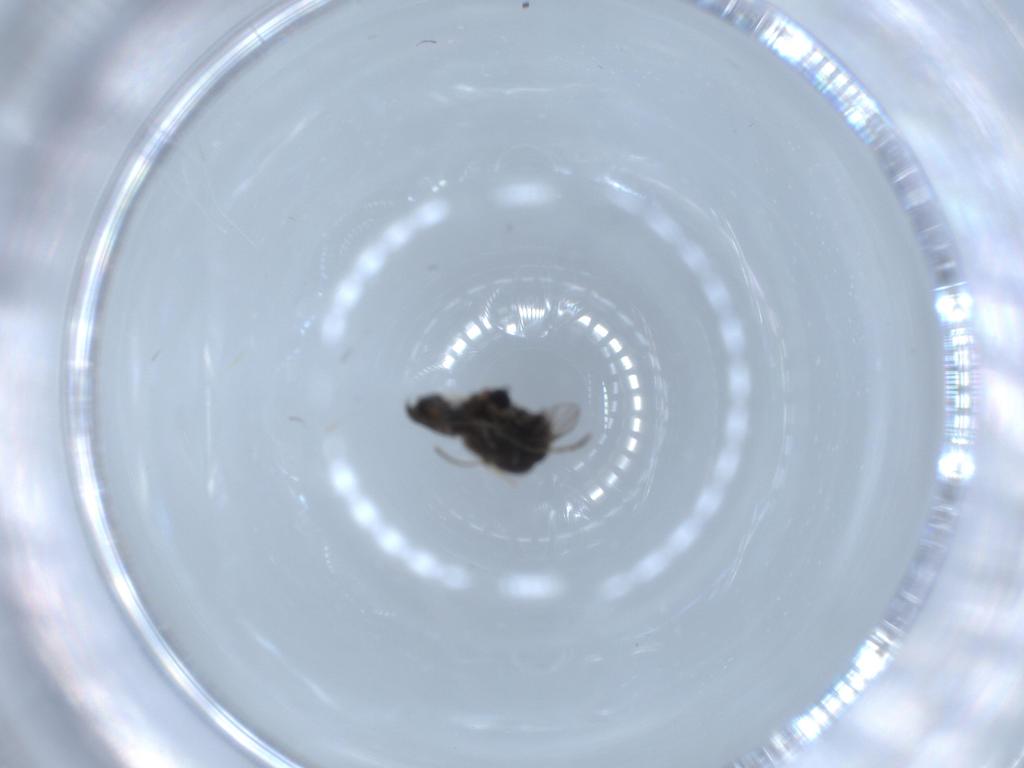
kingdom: Animalia
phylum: Arthropoda
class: Insecta
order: Diptera
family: Psychodidae
